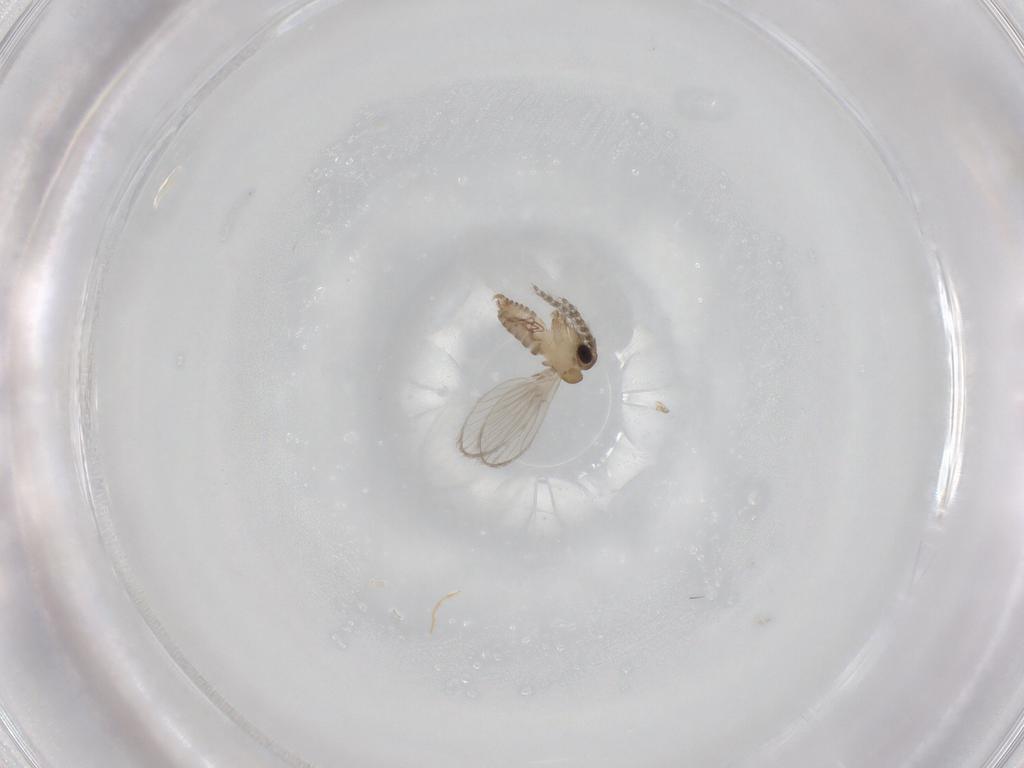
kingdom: Animalia
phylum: Arthropoda
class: Insecta
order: Diptera
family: Psychodidae
